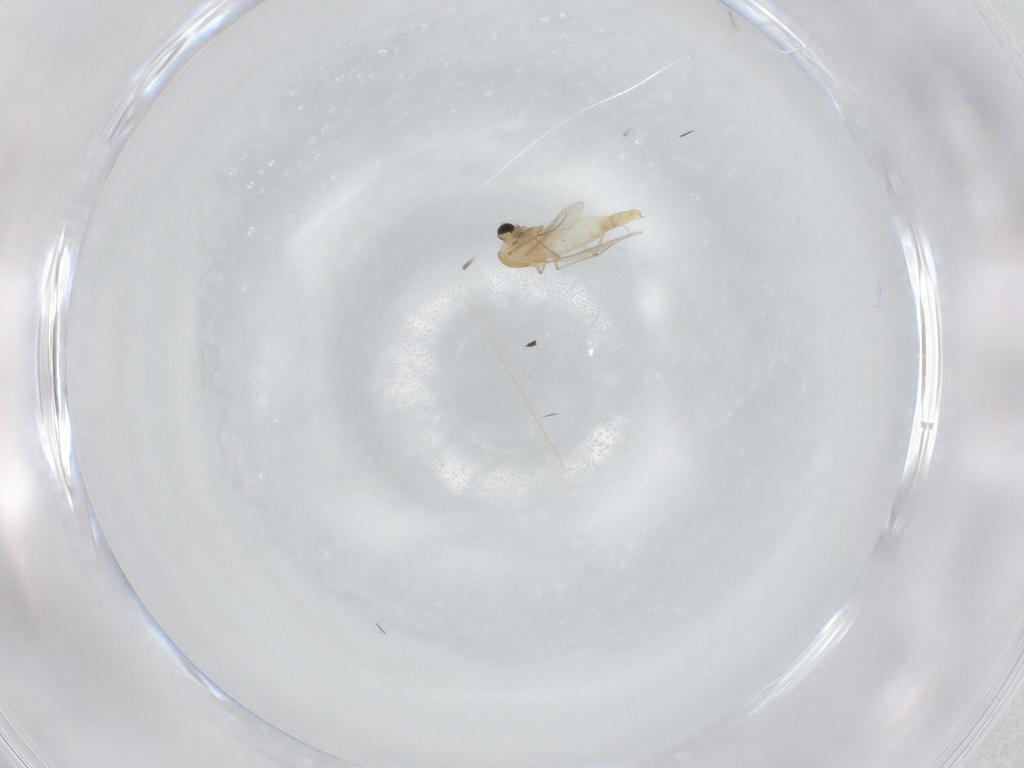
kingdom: Animalia
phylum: Arthropoda
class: Insecta
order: Diptera
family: Chironomidae
